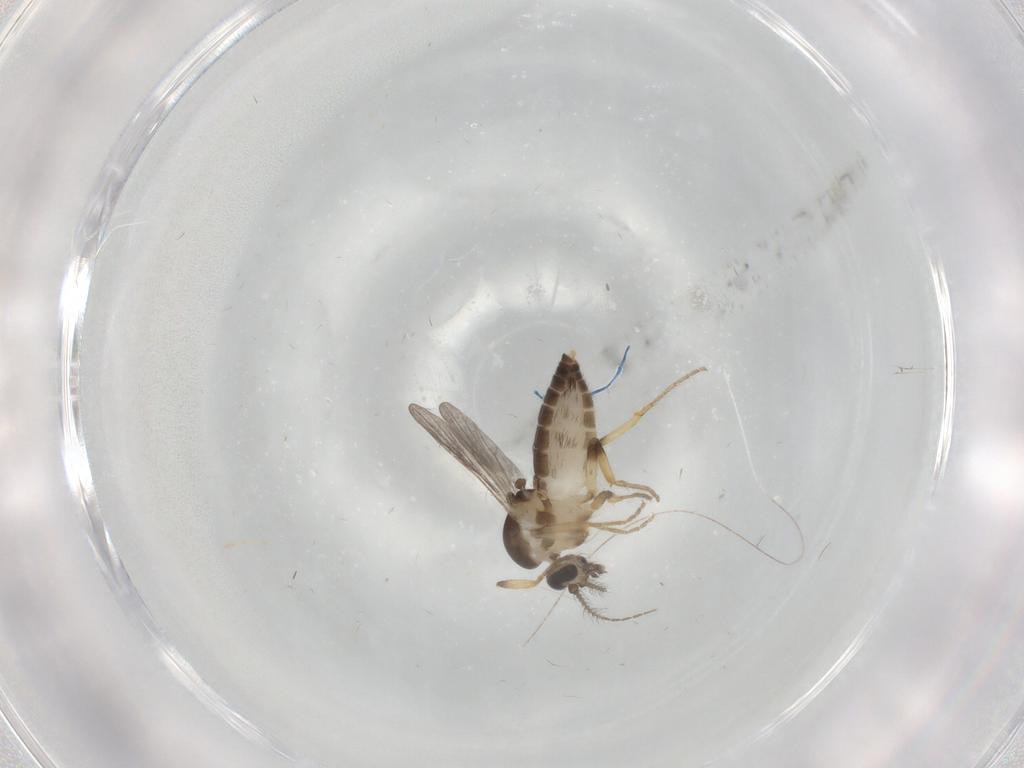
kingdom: Animalia
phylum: Arthropoda
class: Insecta
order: Diptera
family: Ceratopogonidae
